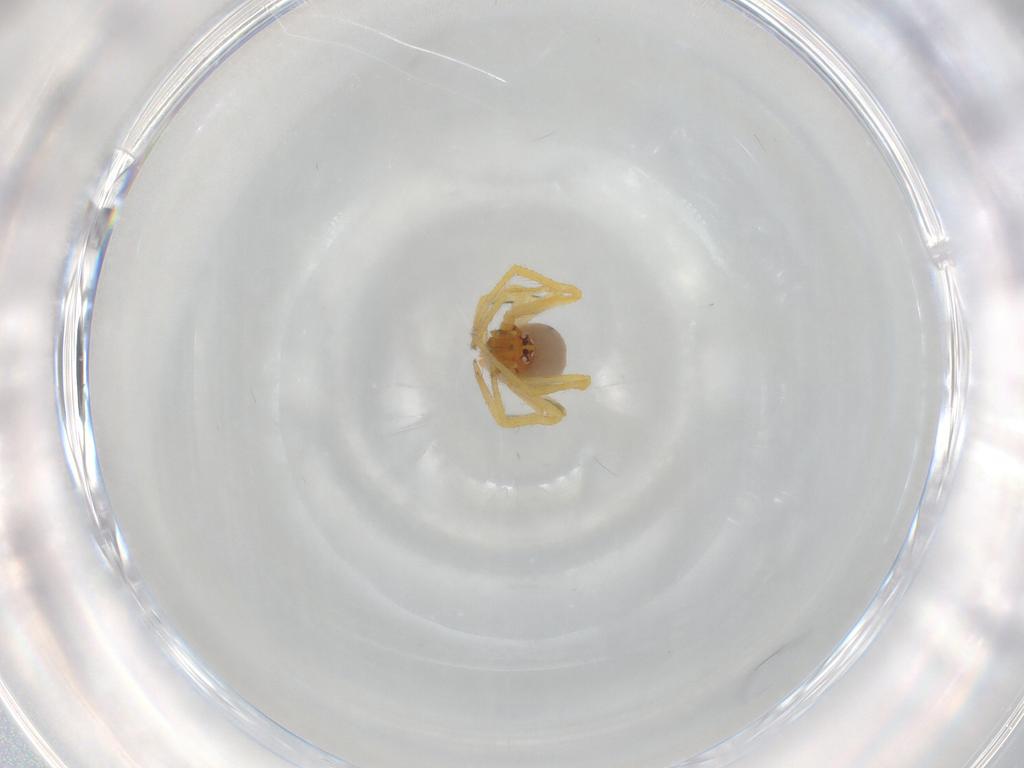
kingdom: Animalia
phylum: Arthropoda
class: Arachnida
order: Araneae
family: Theridiidae
